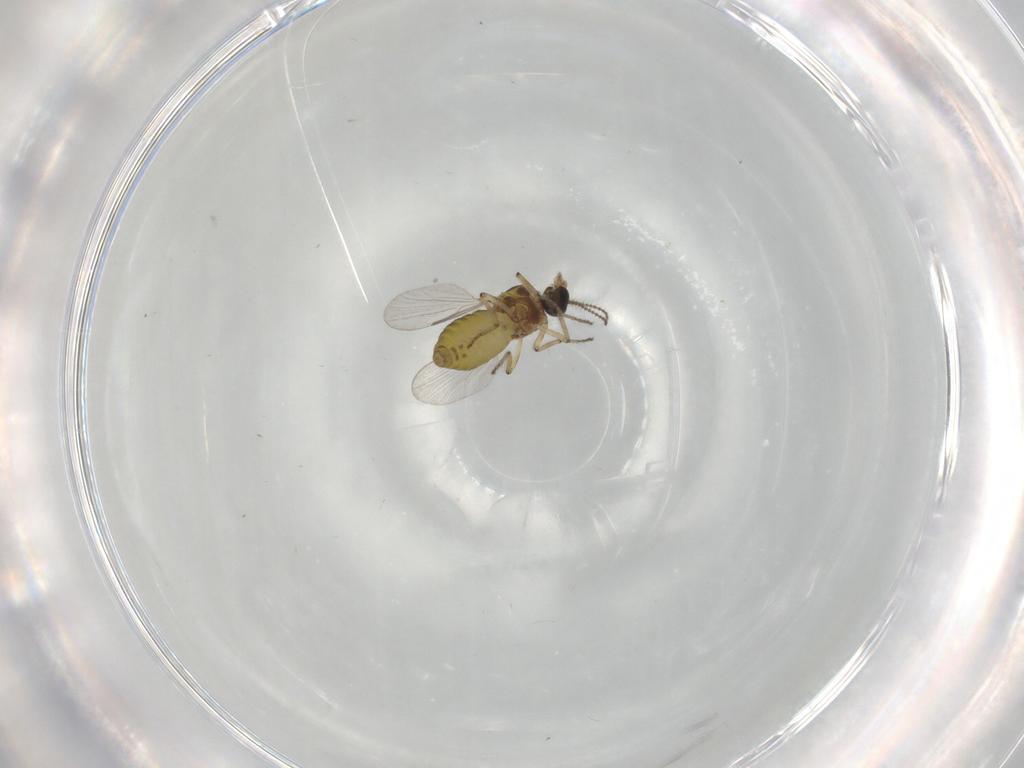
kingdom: Animalia
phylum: Arthropoda
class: Insecta
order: Diptera
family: Ceratopogonidae
